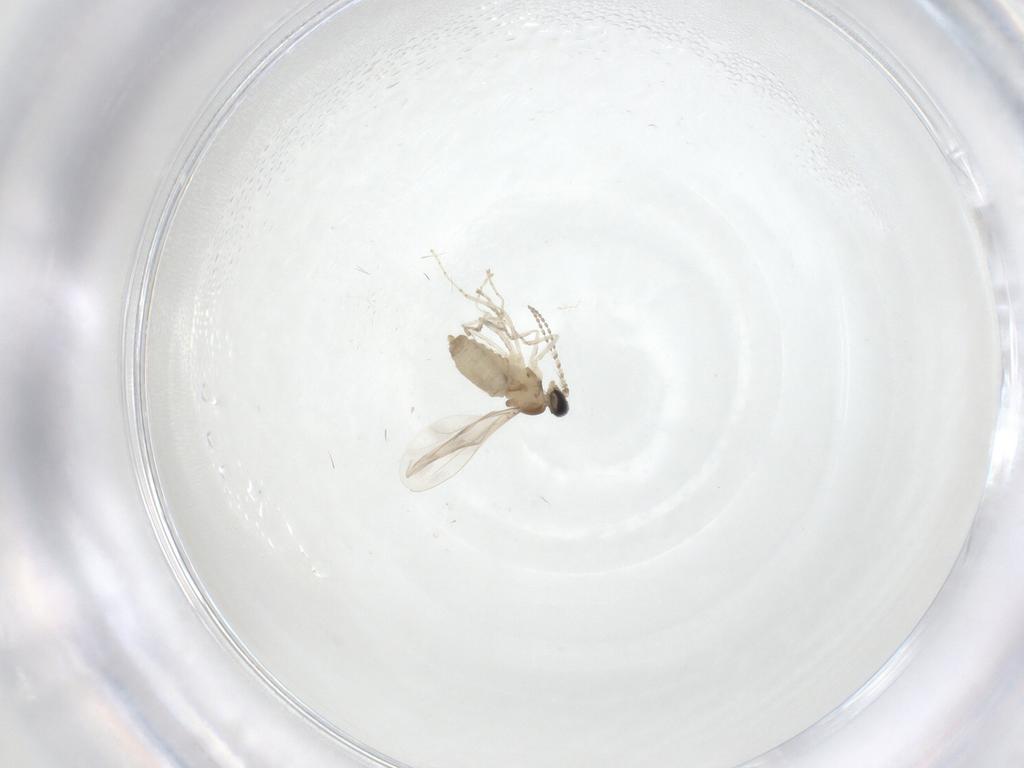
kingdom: Animalia
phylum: Arthropoda
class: Insecta
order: Diptera
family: Cecidomyiidae
